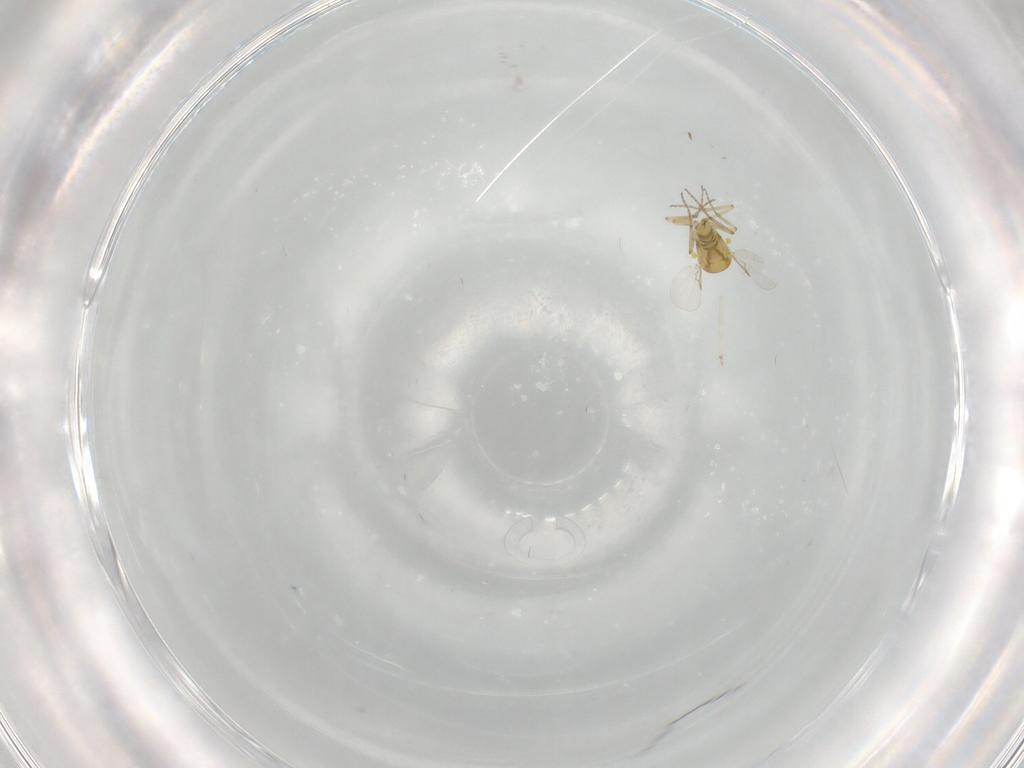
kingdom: Animalia
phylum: Arthropoda
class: Insecta
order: Diptera
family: Ceratopogonidae
